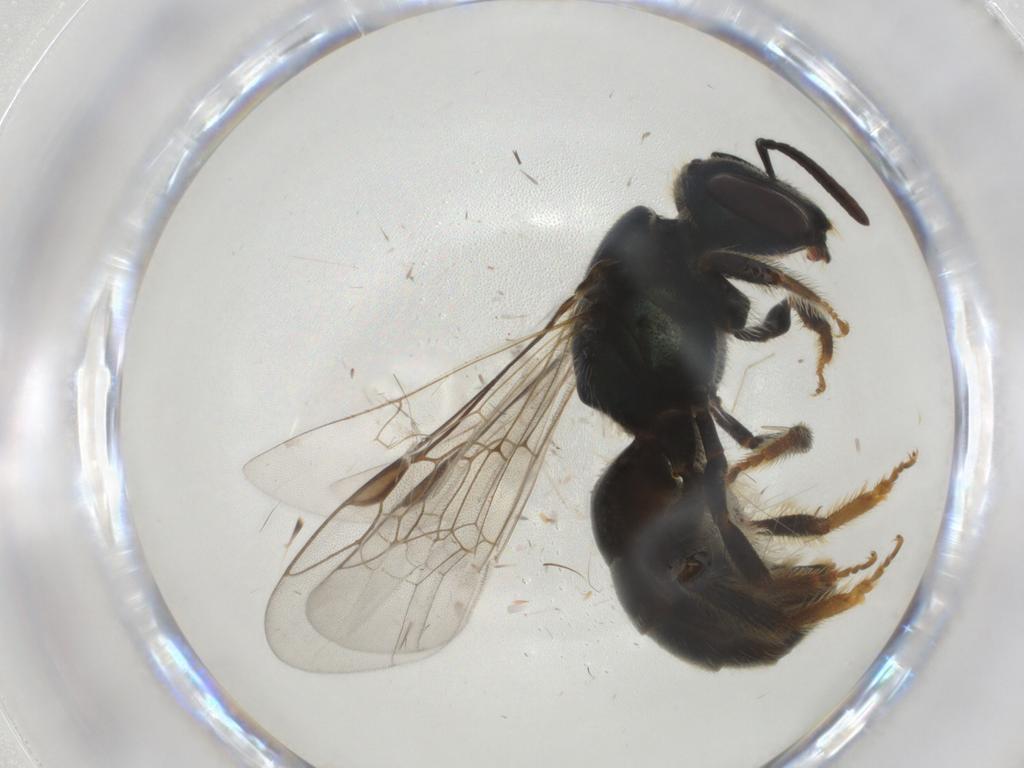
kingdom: Animalia
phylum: Arthropoda
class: Insecta
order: Hymenoptera
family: Halictidae
